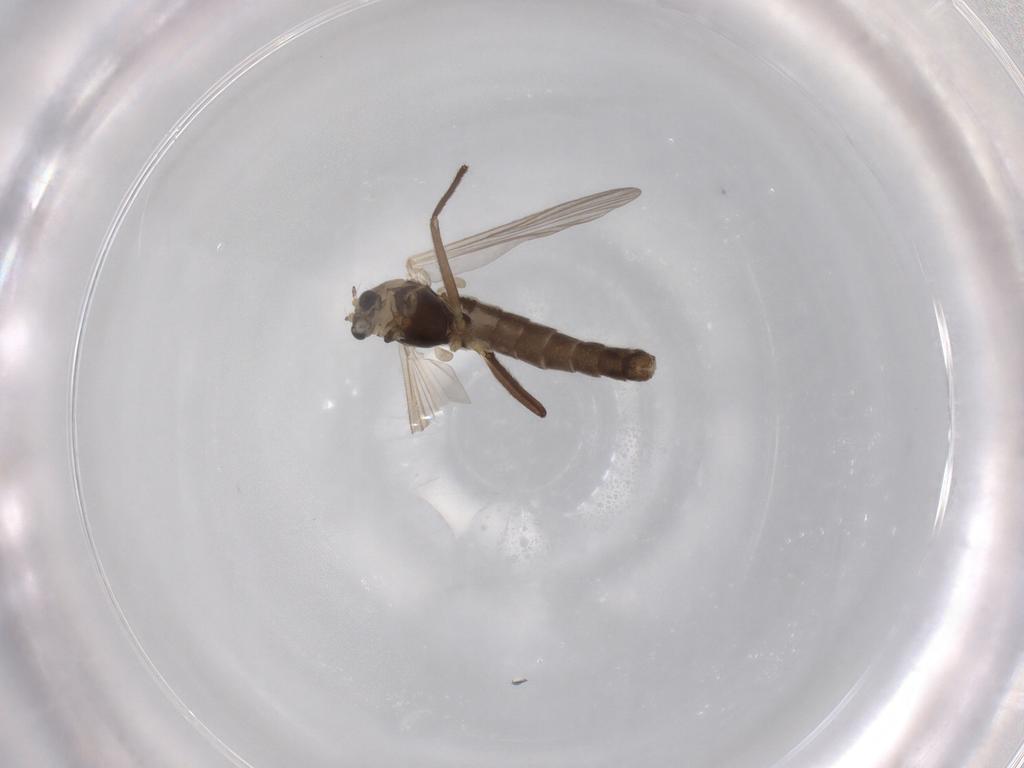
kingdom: Animalia
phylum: Arthropoda
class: Insecta
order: Diptera
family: Chironomidae
